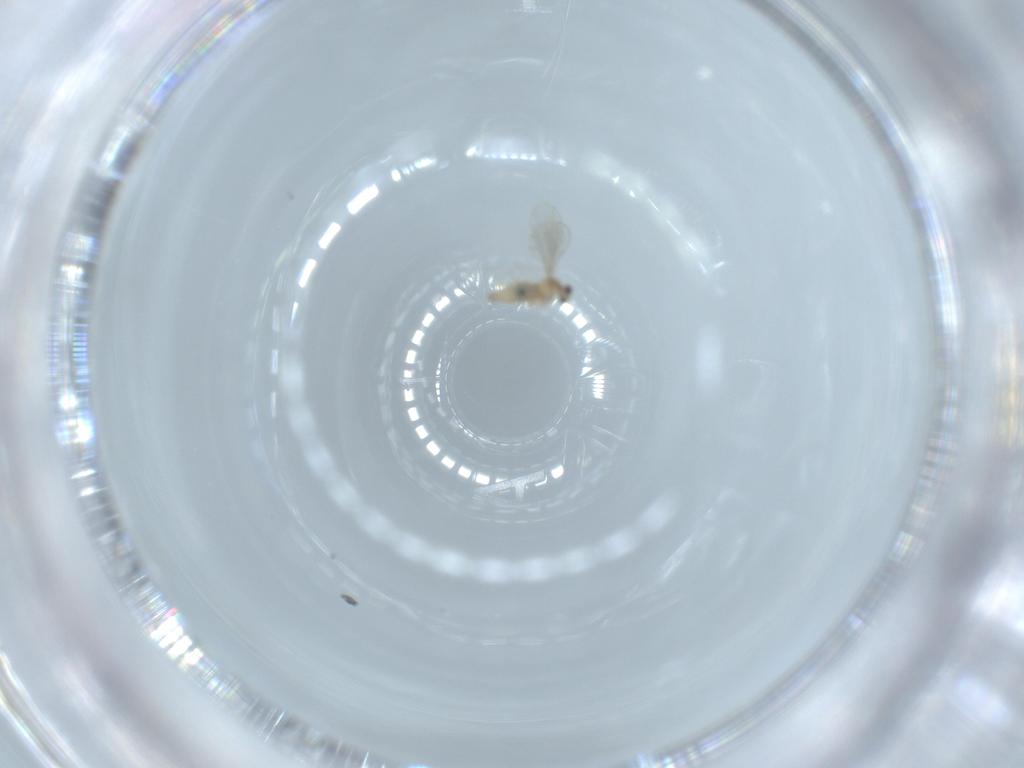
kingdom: Animalia
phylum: Arthropoda
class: Insecta
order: Diptera
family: Cecidomyiidae
